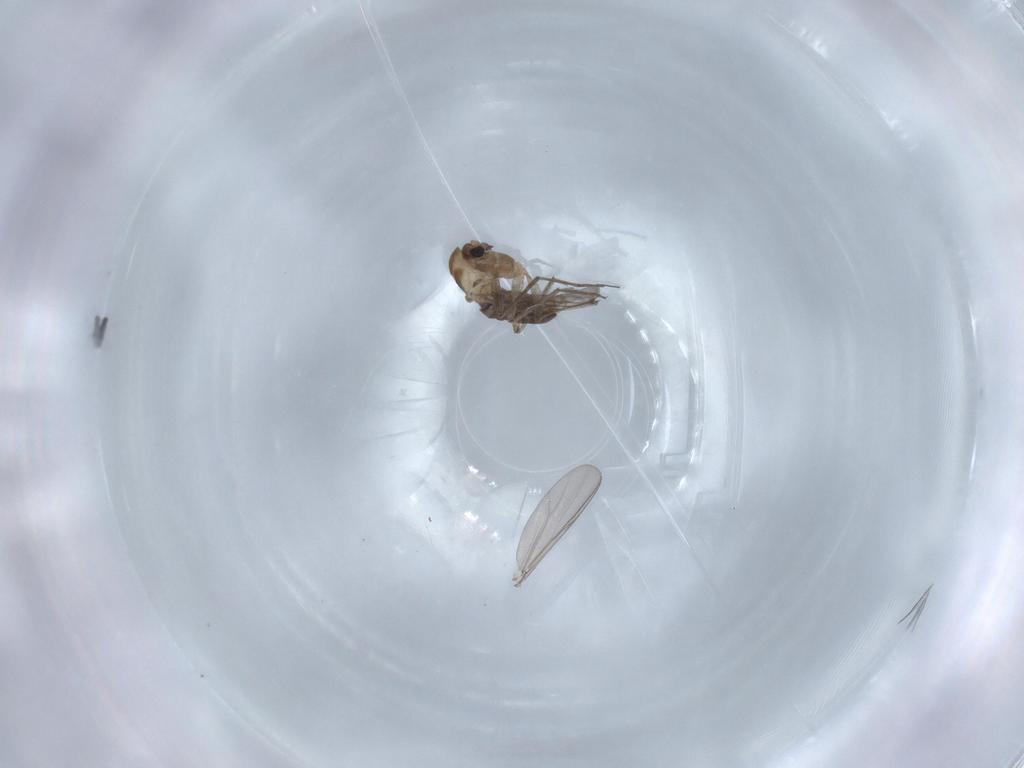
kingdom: Animalia
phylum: Arthropoda
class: Insecta
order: Diptera
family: Chironomidae
